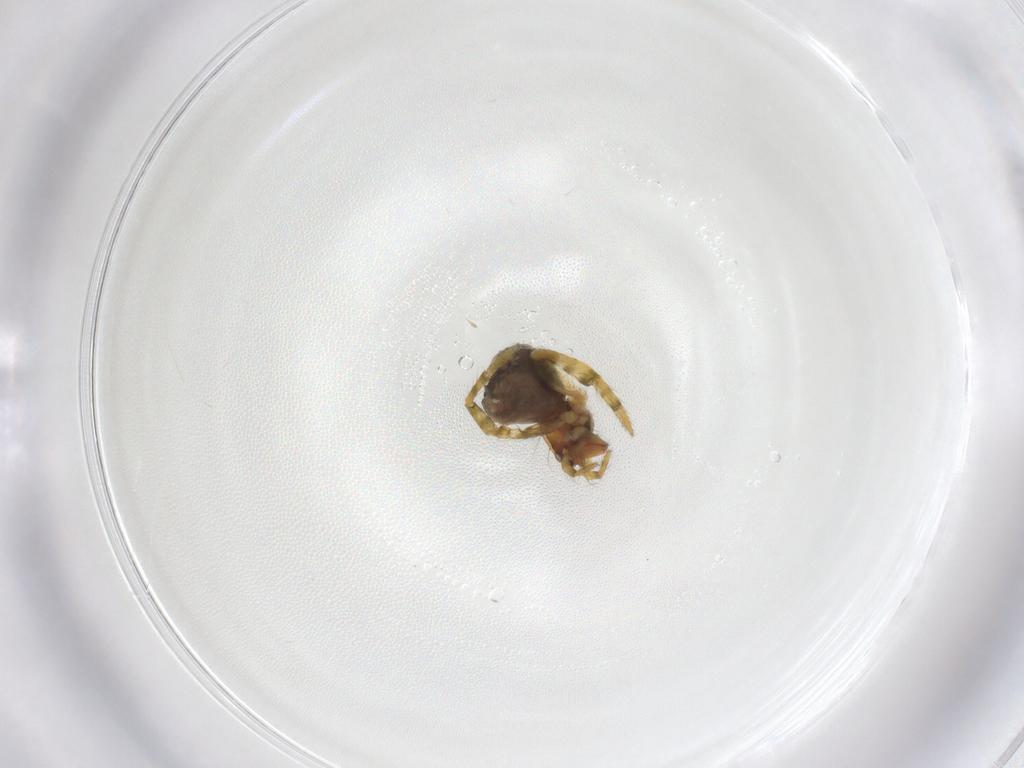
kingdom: Animalia
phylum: Arthropoda
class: Arachnida
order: Araneae
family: Theridiidae
